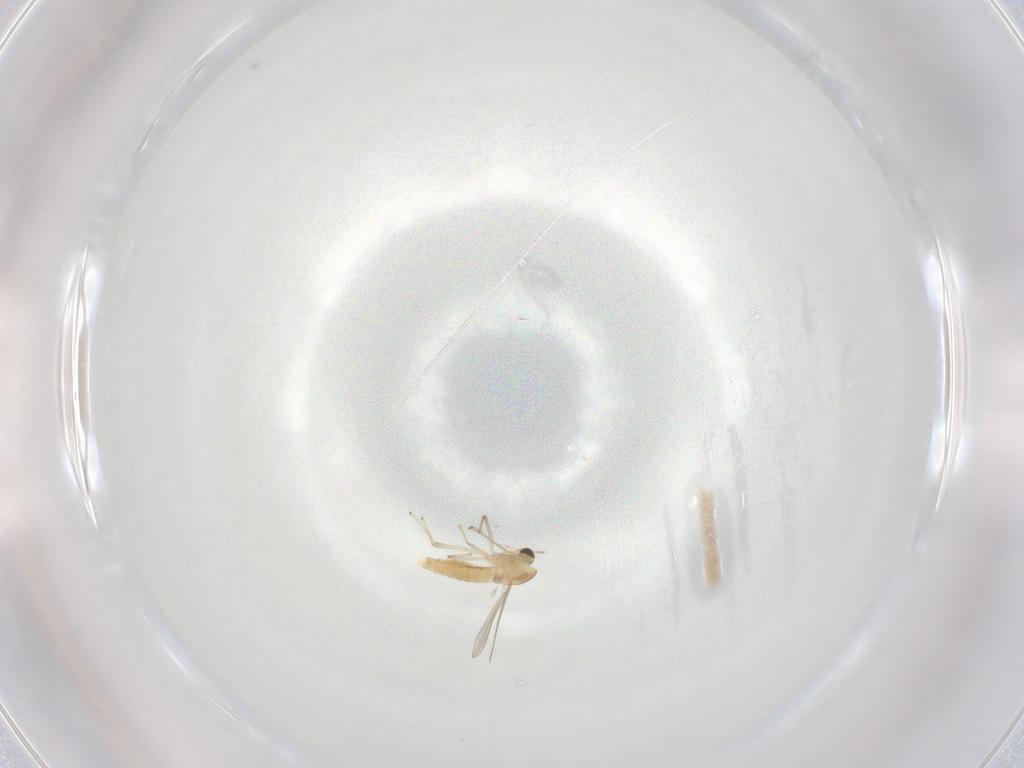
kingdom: Animalia
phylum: Arthropoda
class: Insecta
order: Diptera
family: Chironomidae
